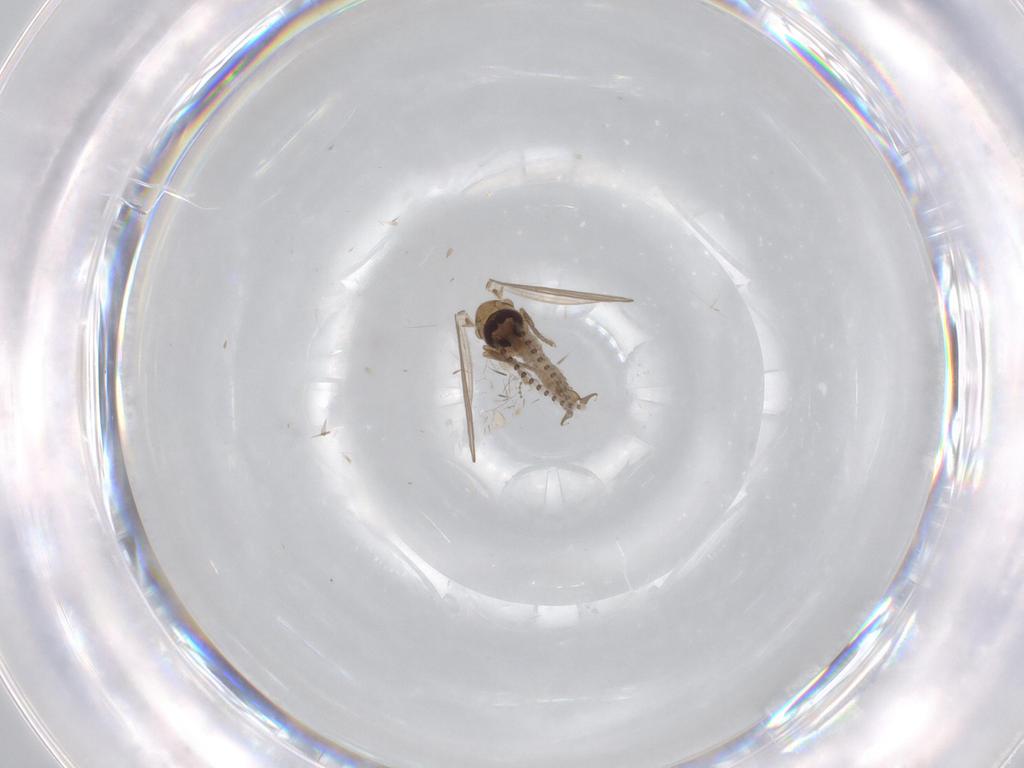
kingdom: Animalia
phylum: Arthropoda
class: Insecta
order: Diptera
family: Psychodidae
